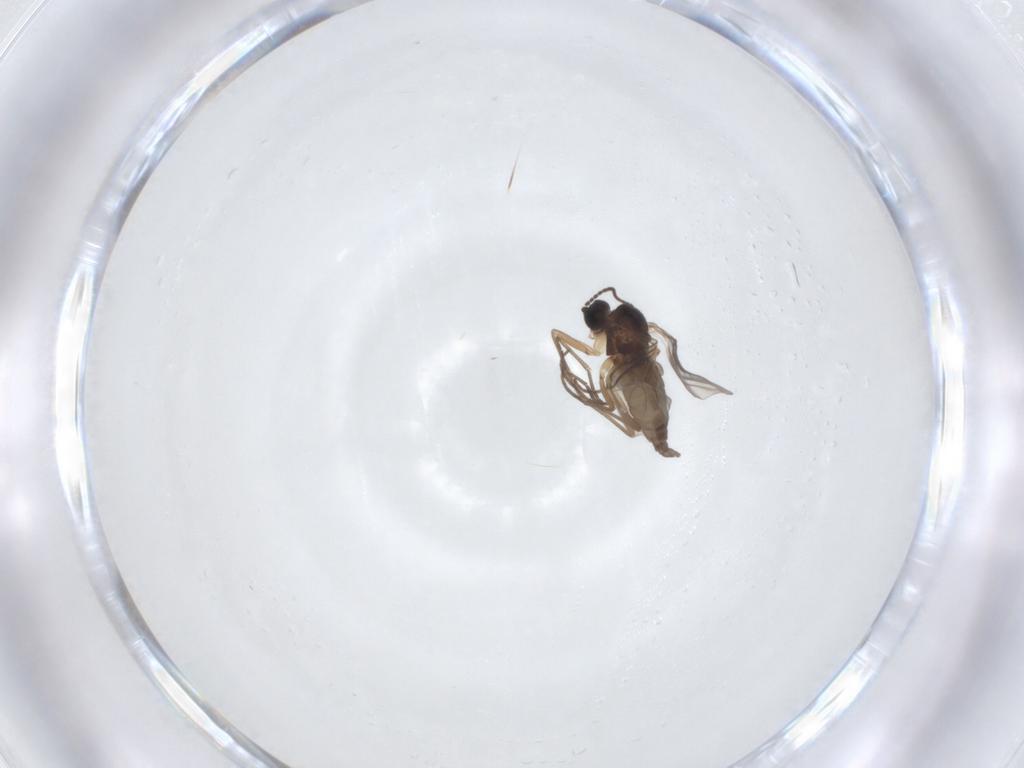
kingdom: Animalia
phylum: Arthropoda
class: Insecta
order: Diptera
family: Sciaridae
